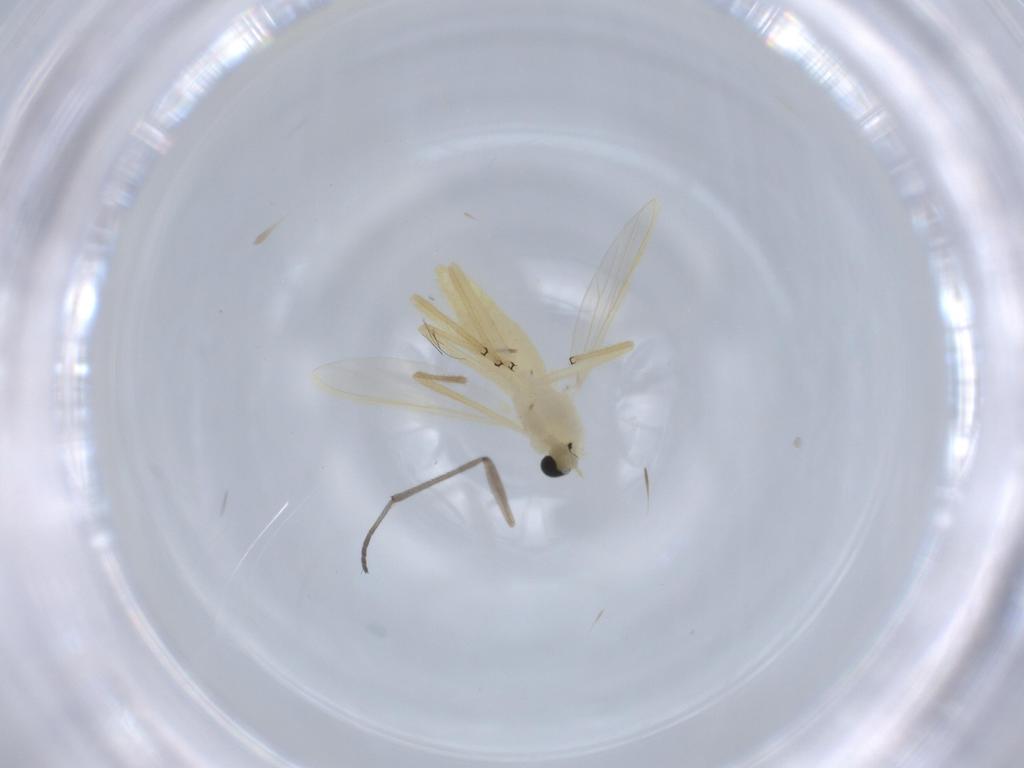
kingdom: Animalia
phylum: Arthropoda
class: Insecta
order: Diptera
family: Chironomidae
